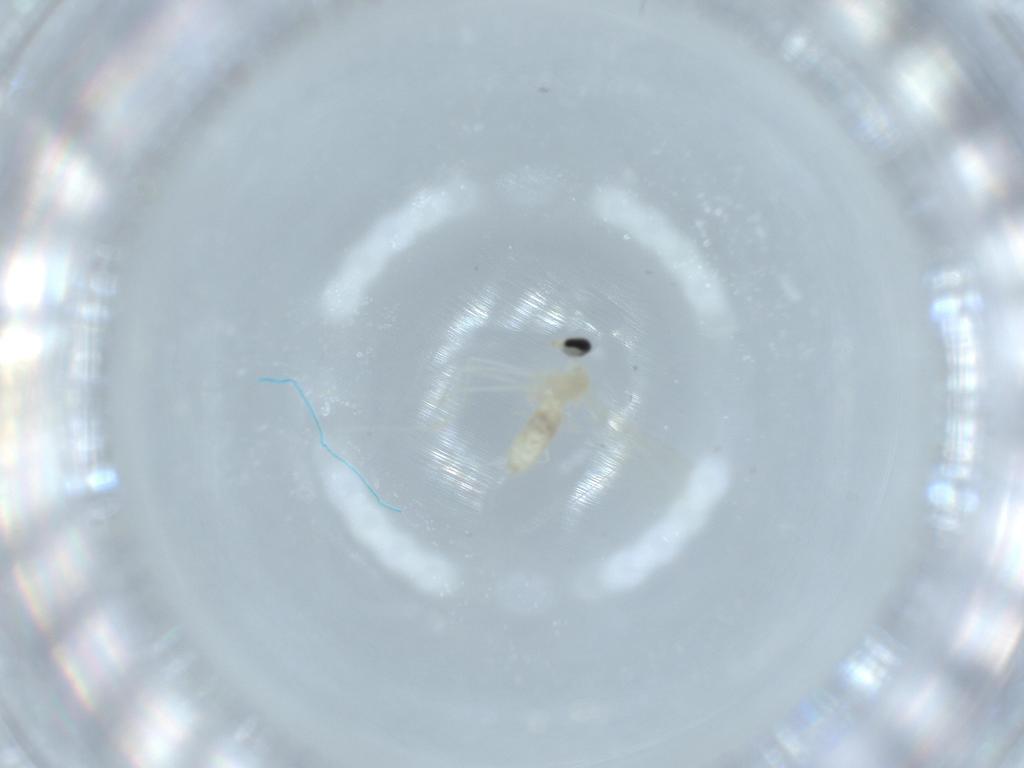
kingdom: Animalia
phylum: Arthropoda
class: Insecta
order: Diptera
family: Cecidomyiidae
